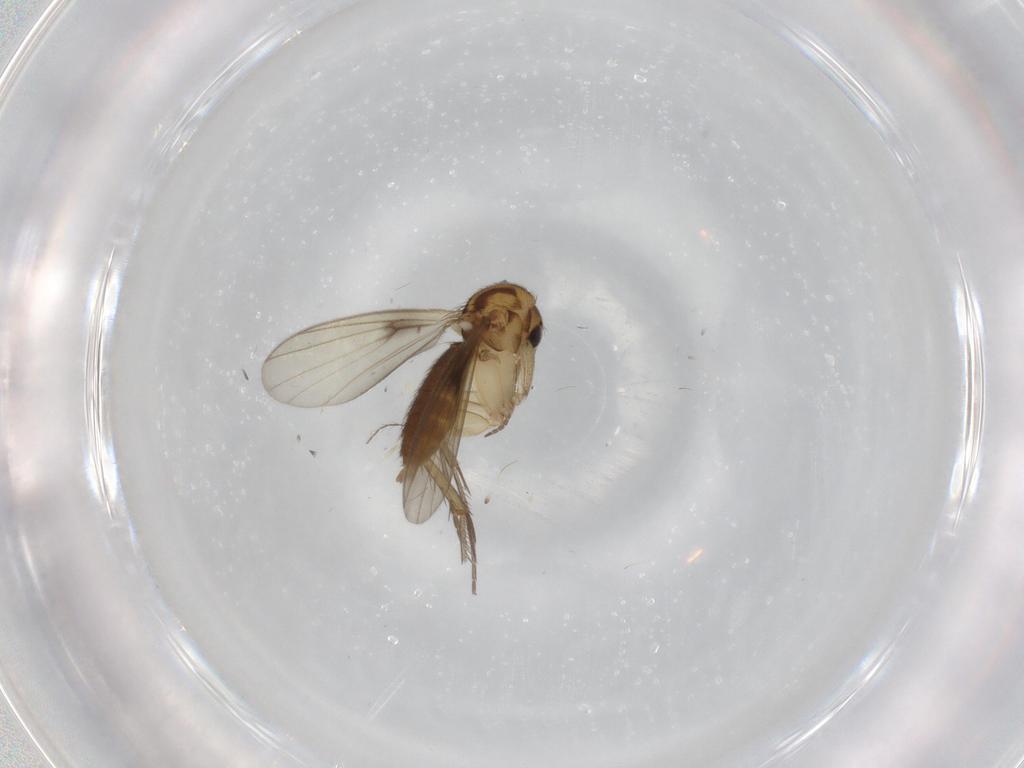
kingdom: Animalia
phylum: Arthropoda
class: Insecta
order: Diptera
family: Mycetophilidae
